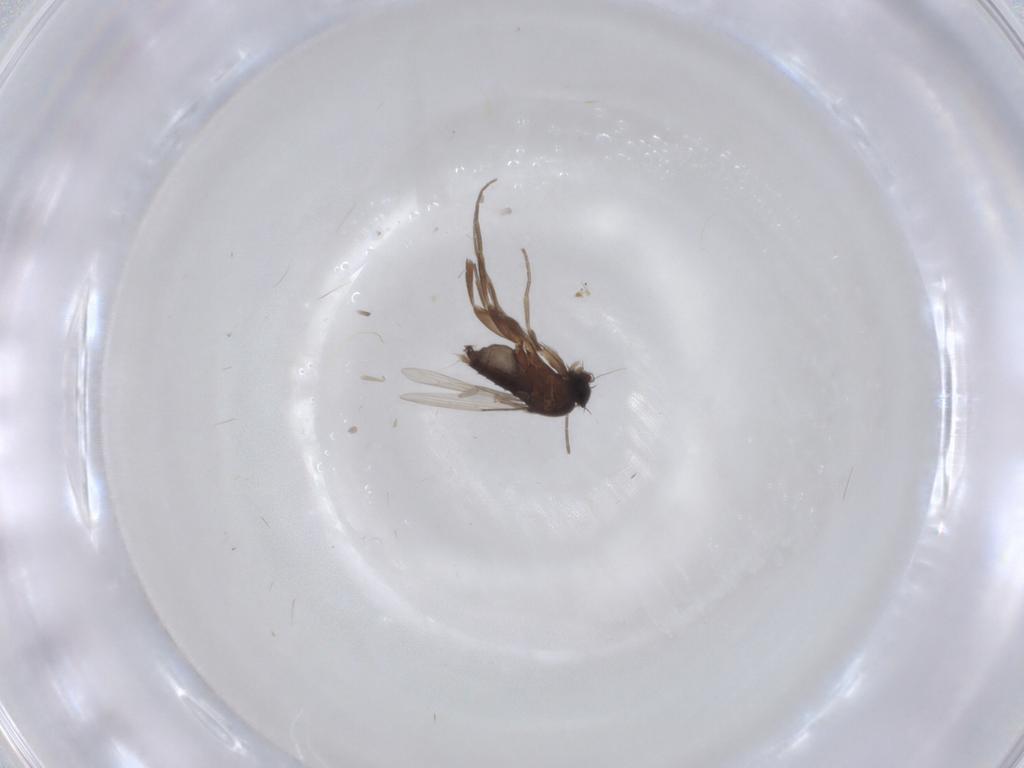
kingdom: Animalia
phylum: Arthropoda
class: Insecta
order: Diptera
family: Phoridae
